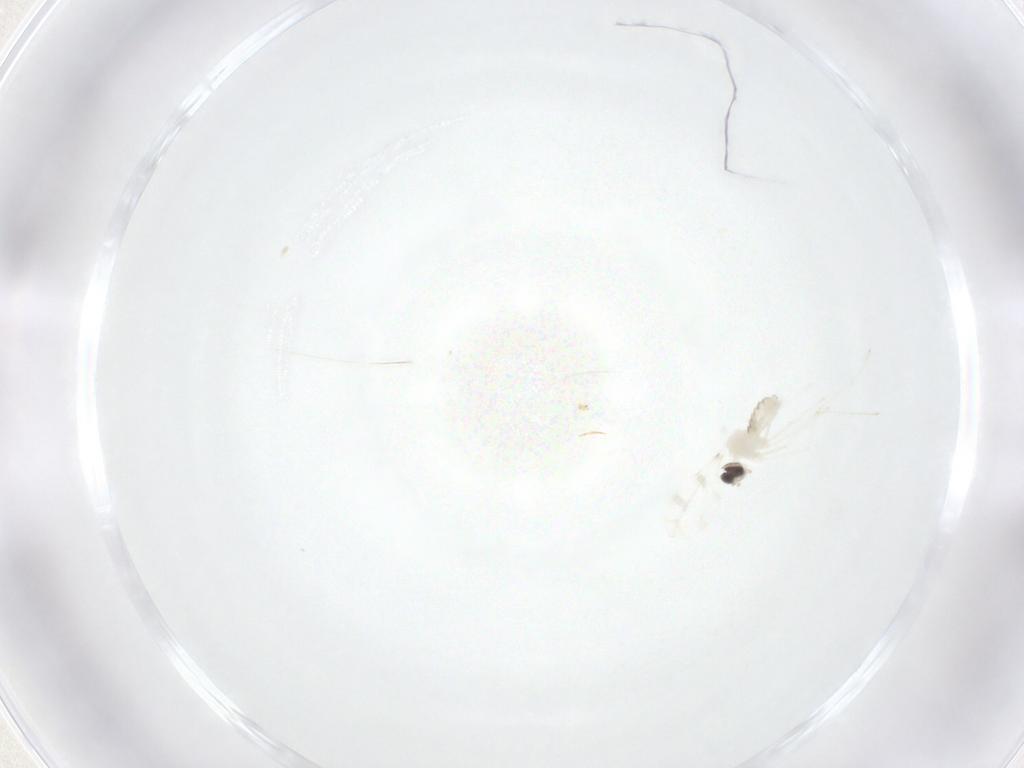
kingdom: Animalia
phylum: Arthropoda
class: Insecta
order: Diptera
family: Cecidomyiidae
